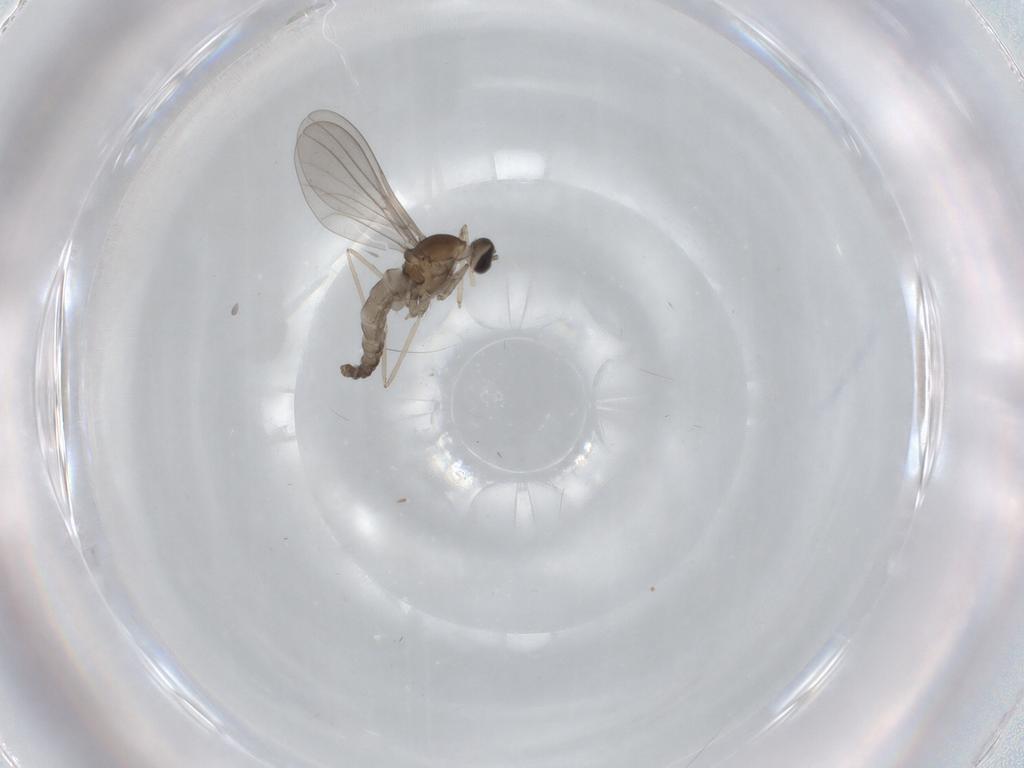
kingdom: Animalia
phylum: Arthropoda
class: Insecta
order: Diptera
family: Cecidomyiidae
